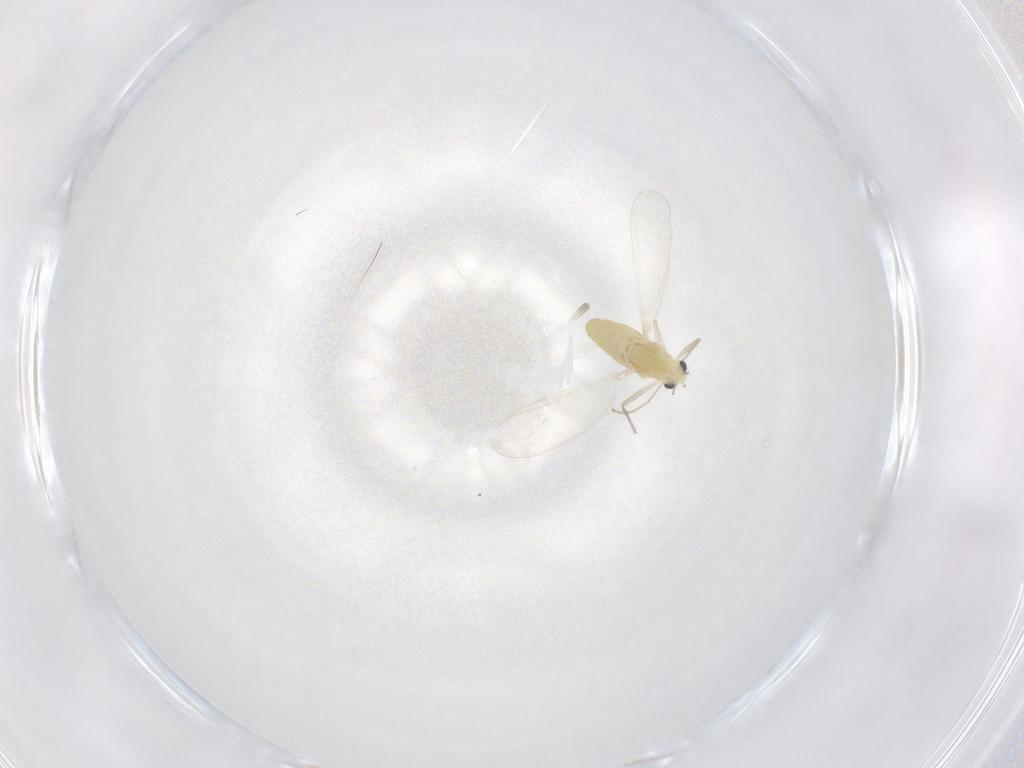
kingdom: Animalia
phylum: Arthropoda
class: Insecta
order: Diptera
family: Chironomidae
